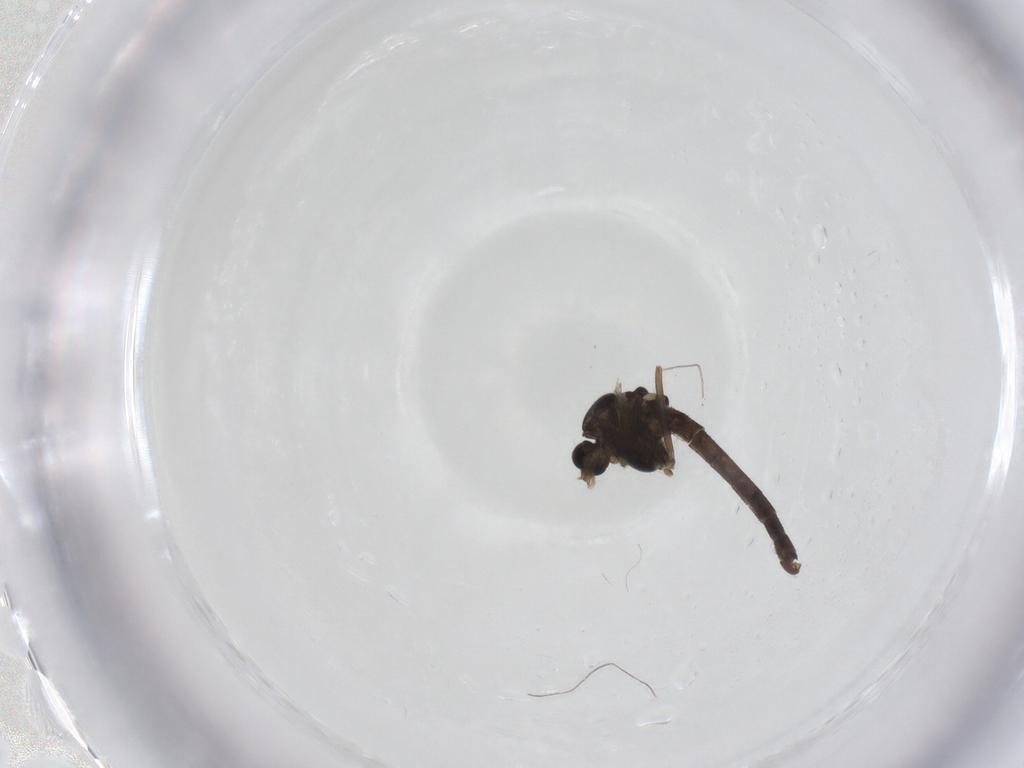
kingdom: Animalia
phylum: Arthropoda
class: Insecta
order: Diptera
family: Chironomidae
